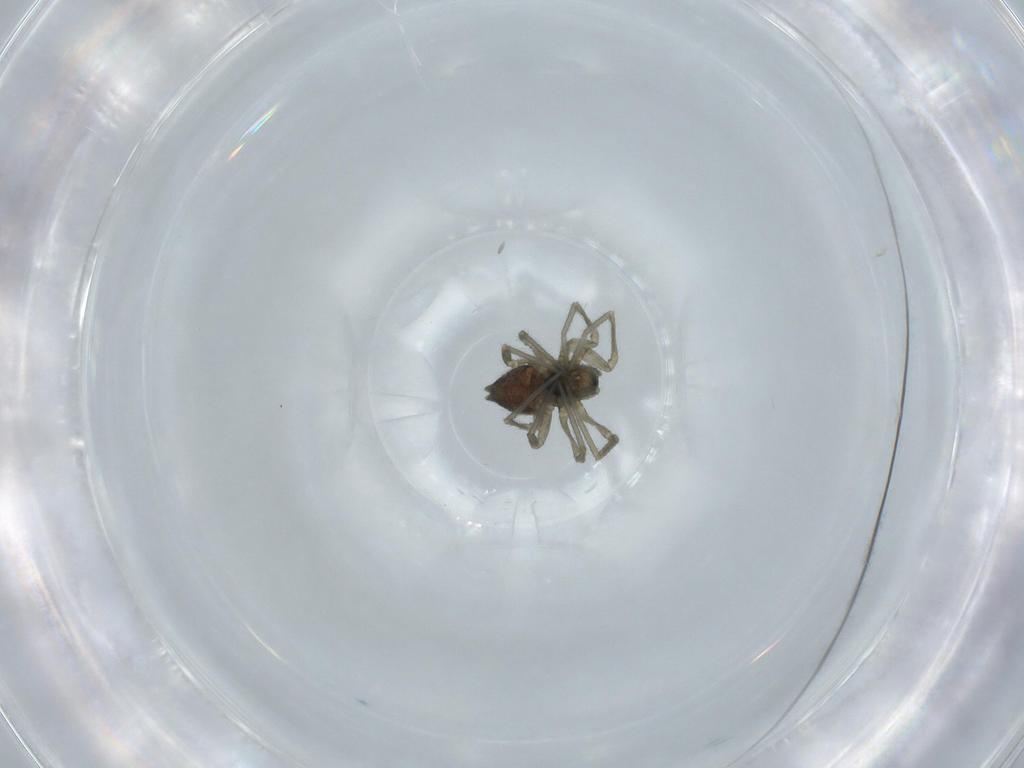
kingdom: Animalia
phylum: Arthropoda
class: Arachnida
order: Araneae
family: Linyphiidae
